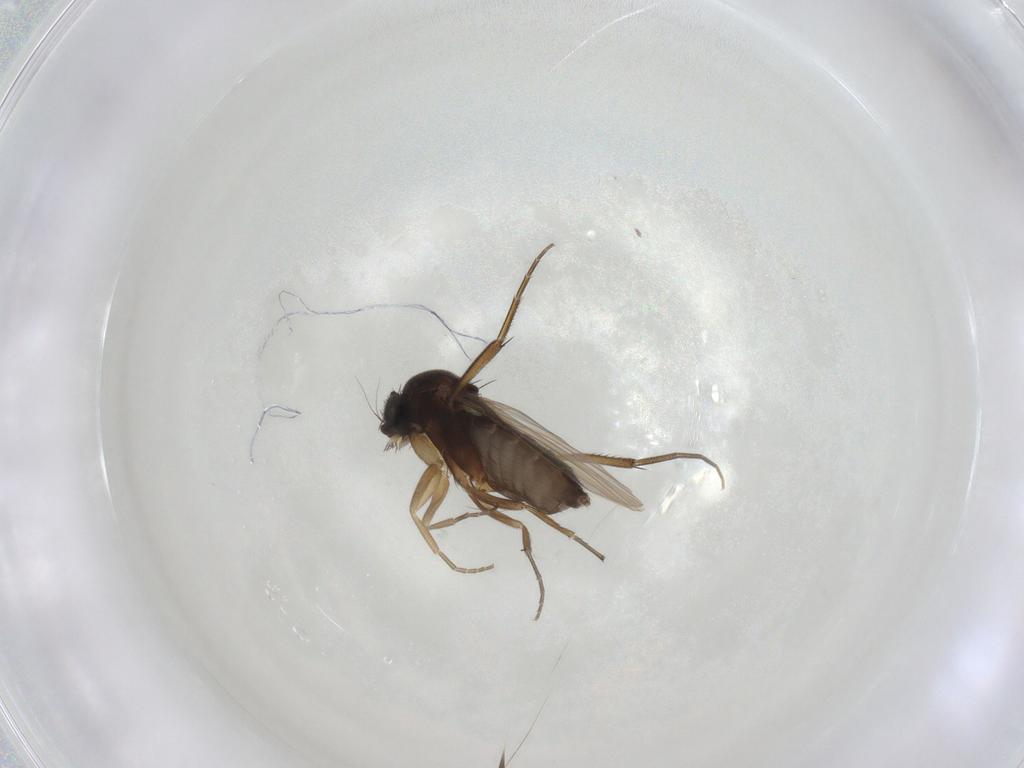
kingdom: Animalia
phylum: Arthropoda
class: Insecta
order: Diptera
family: Phoridae
